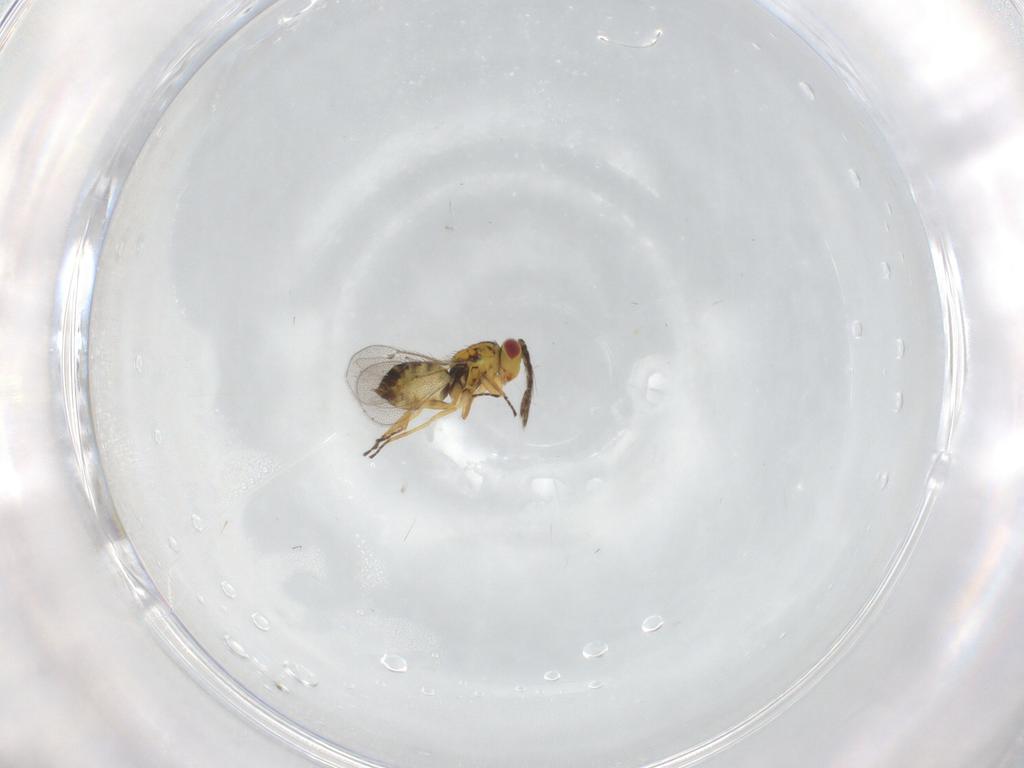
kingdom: Animalia
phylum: Arthropoda
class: Insecta
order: Hymenoptera
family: Eulophidae
